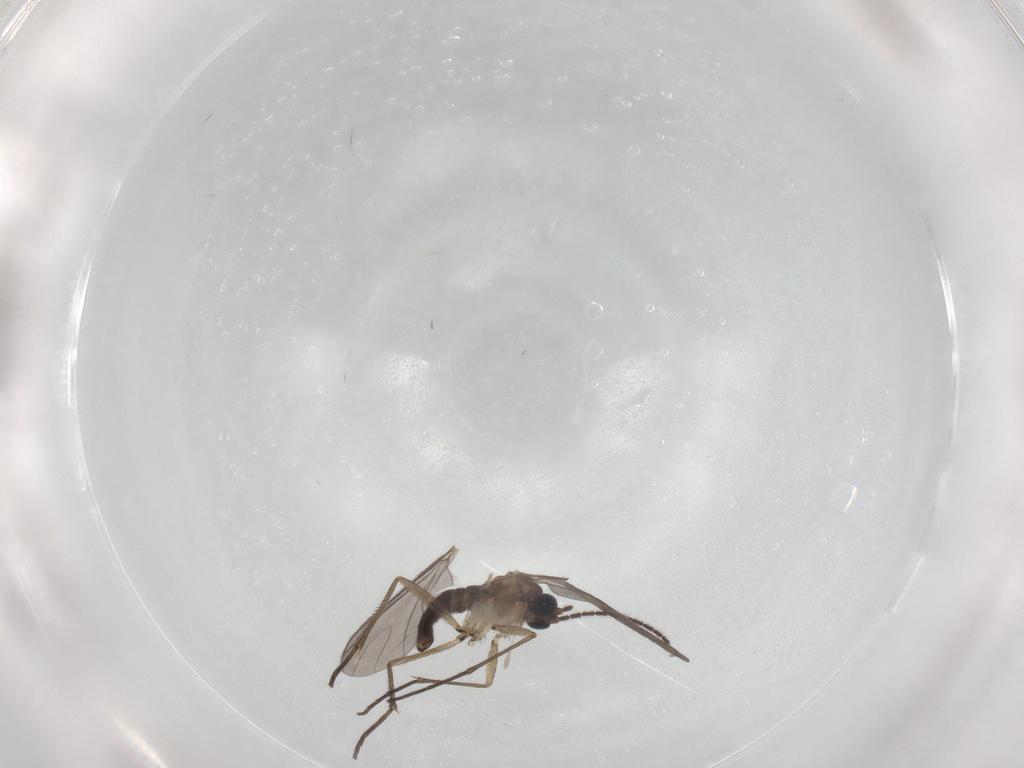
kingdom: Animalia
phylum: Arthropoda
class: Insecta
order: Diptera
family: Sciaridae
